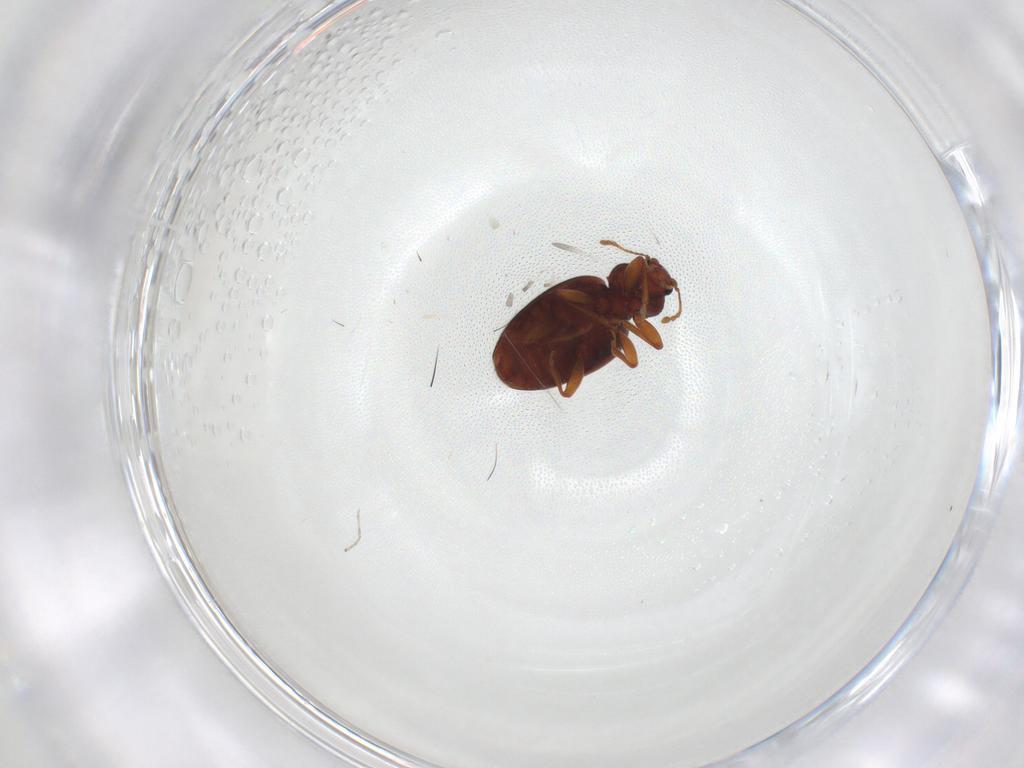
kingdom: Animalia
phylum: Arthropoda
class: Insecta
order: Coleoptera
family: Latridiidae
